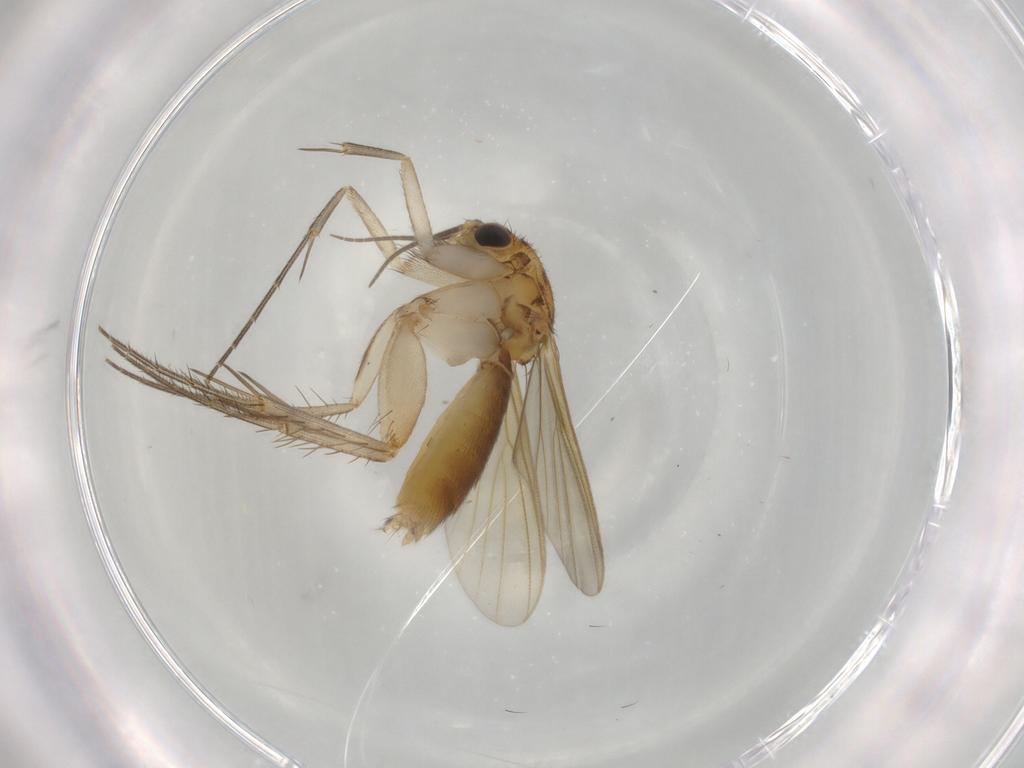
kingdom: Animalia
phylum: Arthropoda
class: Insecta
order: Diptera
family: Mycetophilidae
